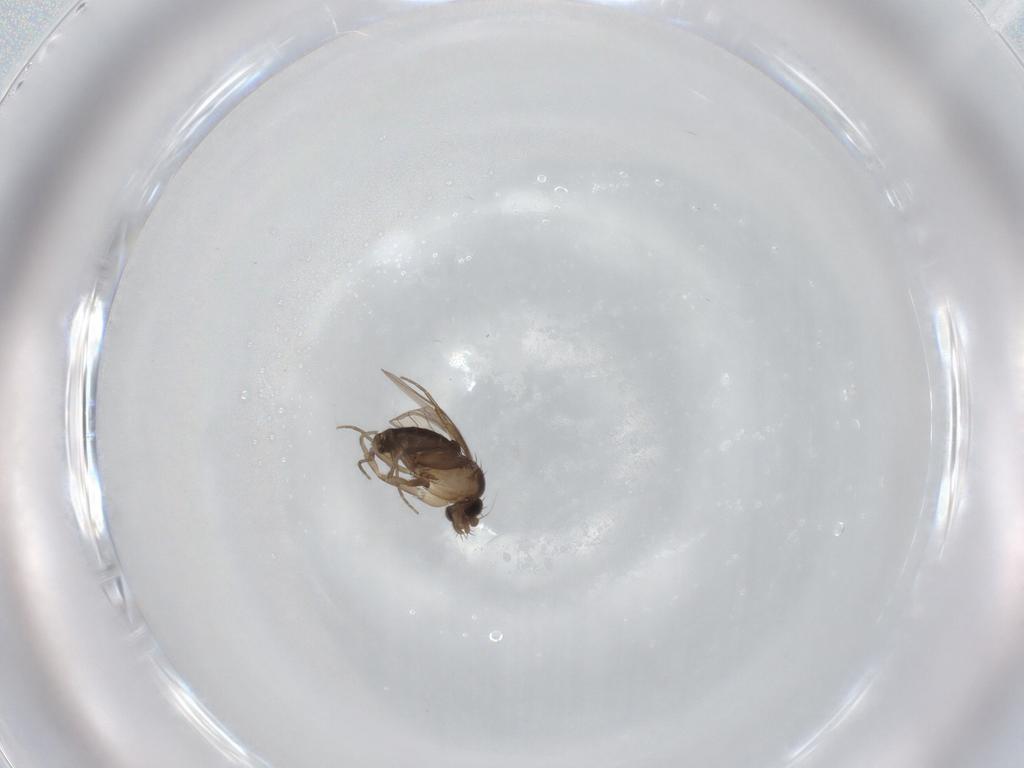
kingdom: Animalia
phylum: Arthropoda
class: Insecta
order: Diptera
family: Phoridae
